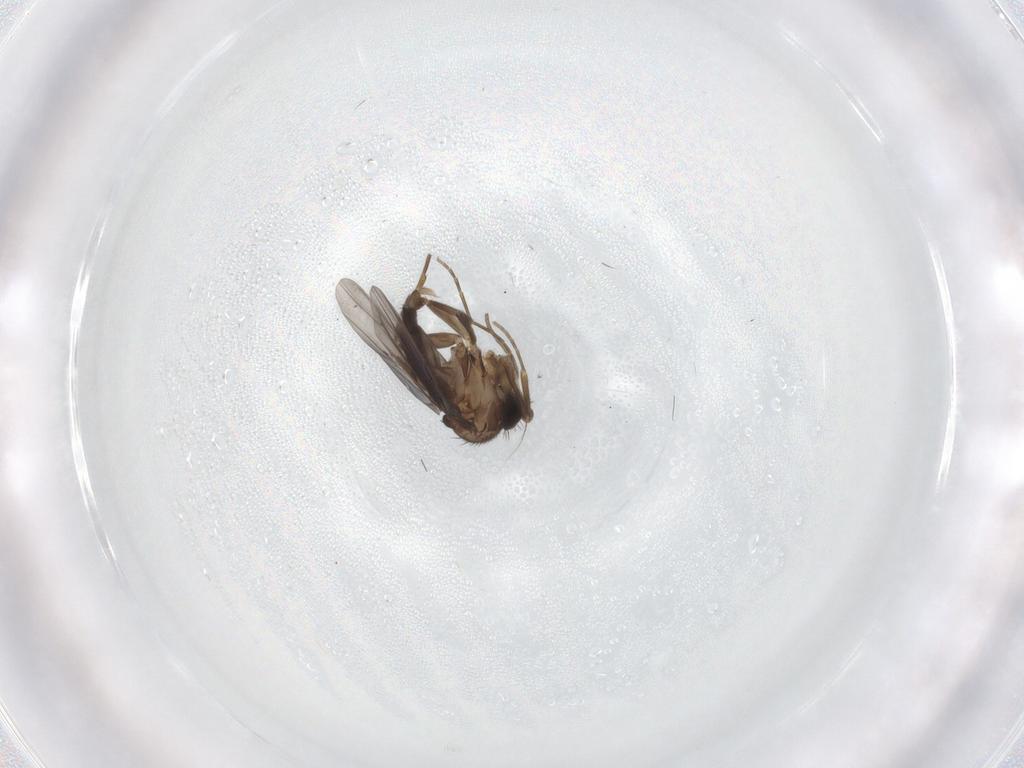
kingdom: Animalia
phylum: Arthropoda
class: Insecta
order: Diptera
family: Phoridae
